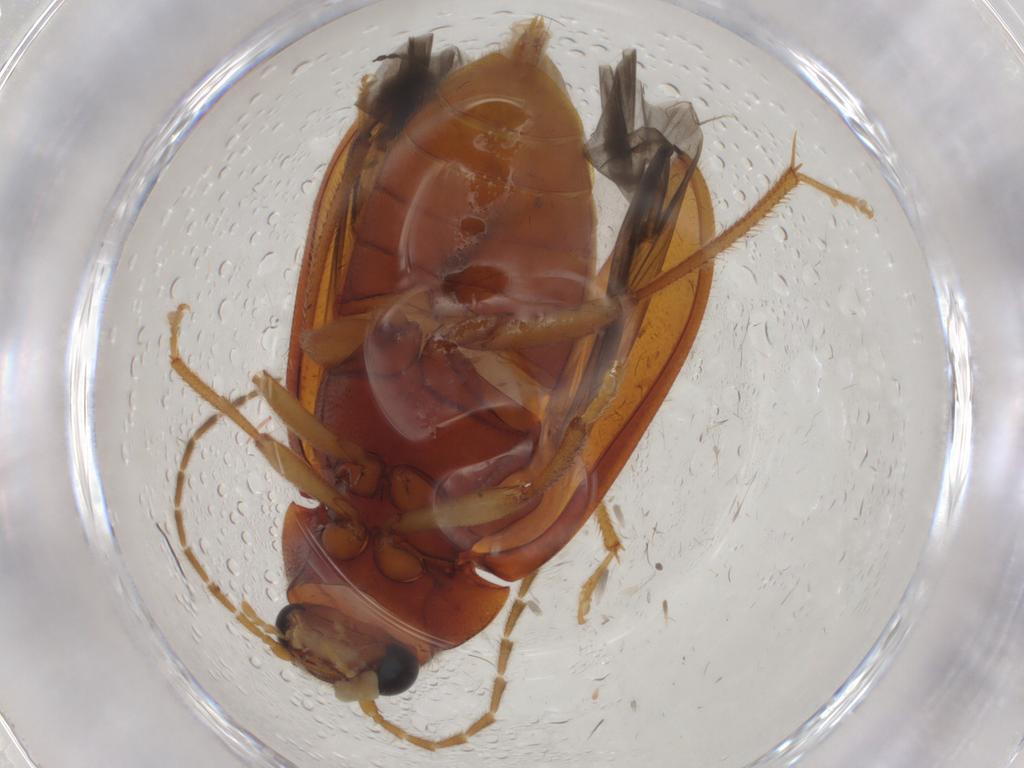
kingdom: Animalia
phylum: Arthropoda
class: Insecta
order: Coleoptera
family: Ptilodactylidae
